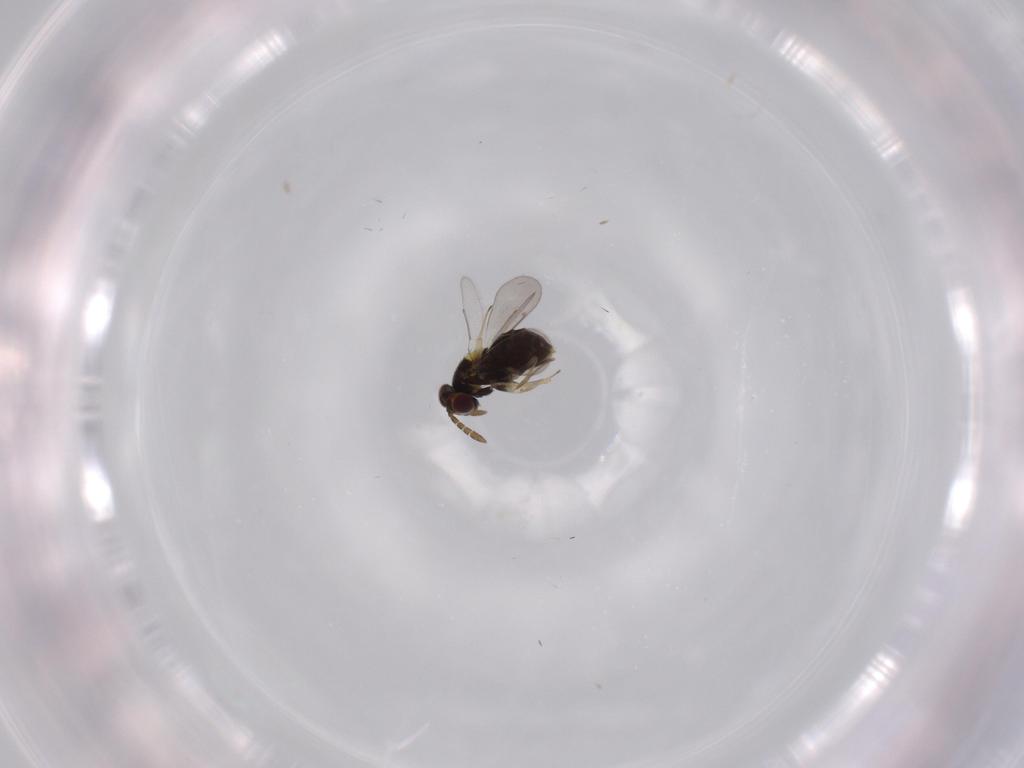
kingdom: Animalia
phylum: Arthropoda
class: Insecta
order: Hymenoptera
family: Aphelinidae
